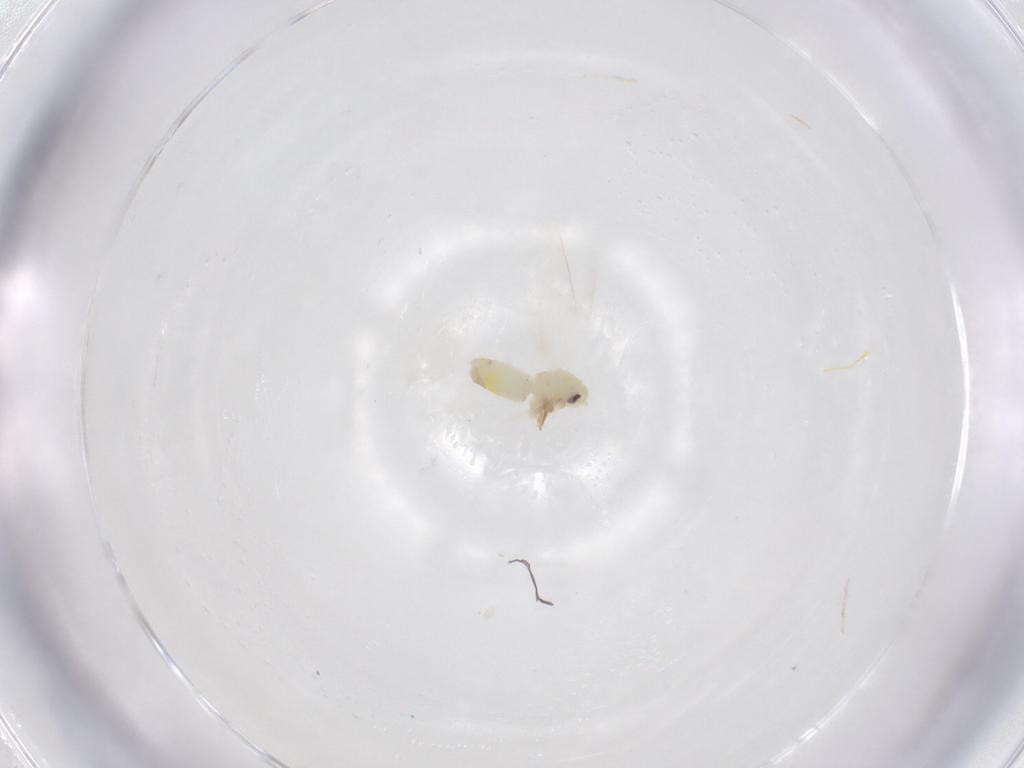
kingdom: Animalia
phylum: Arthropoda
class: Insecta
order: Hemiptera
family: Aleyrodidae
